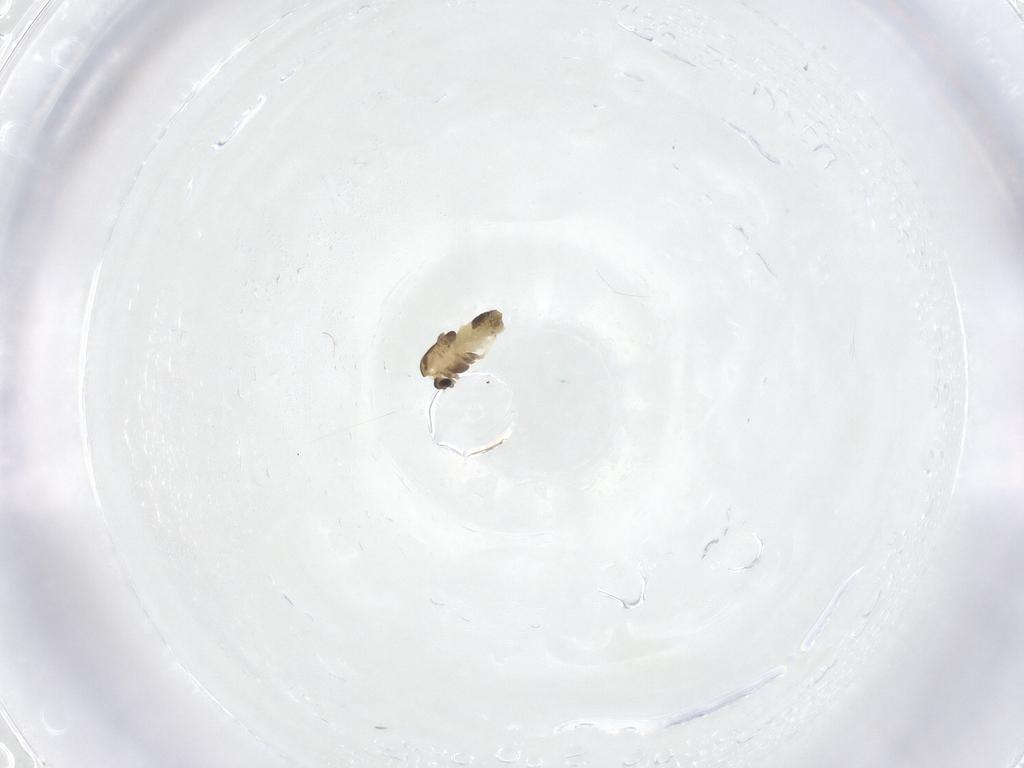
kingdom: Animalia
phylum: Arthropoda
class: Insecta
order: Diptera
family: Chironomidae
